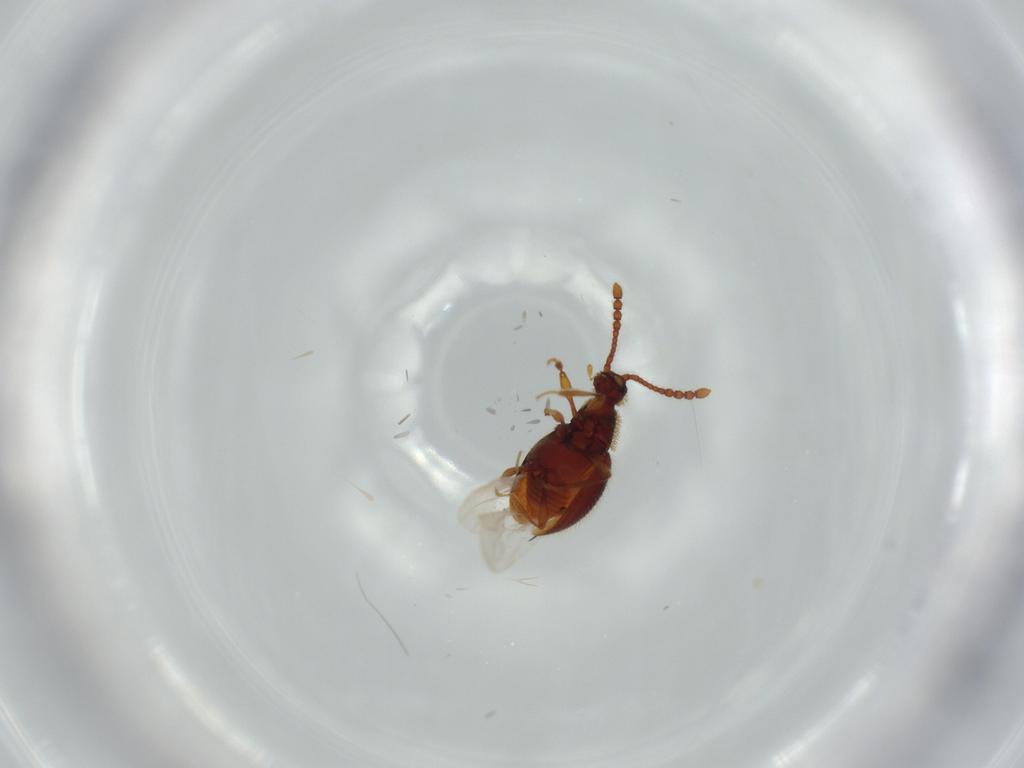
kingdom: Animalia
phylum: Arthropoda
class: Insecta
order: Coleoptera
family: Staphylinidae
